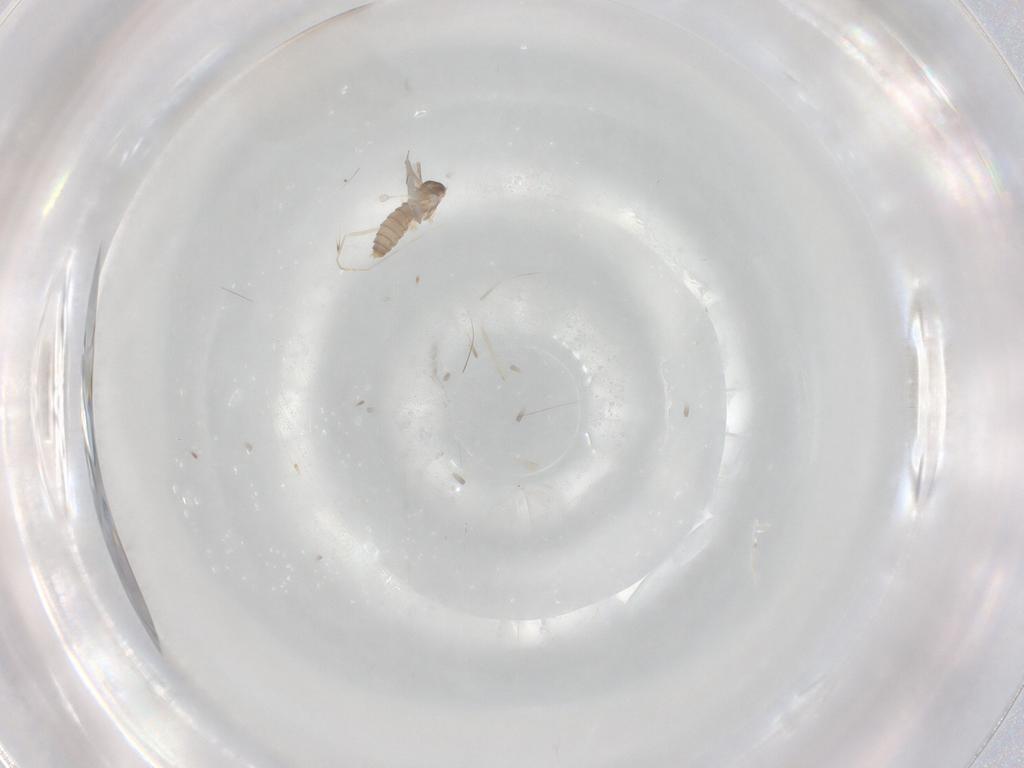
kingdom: Animalia
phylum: Arthropoda
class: Insecta
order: Diptera
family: Cecidomyiidae
